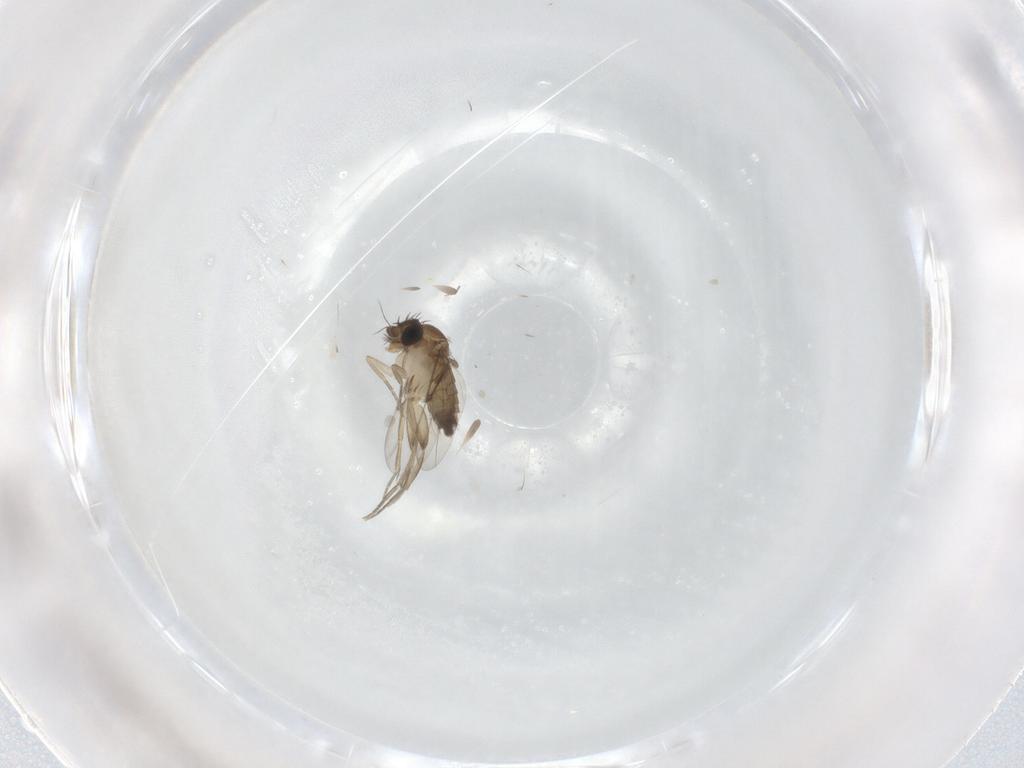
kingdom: Animalia
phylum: Arthropoda
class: Insecta
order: Diptera
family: Phoridae
